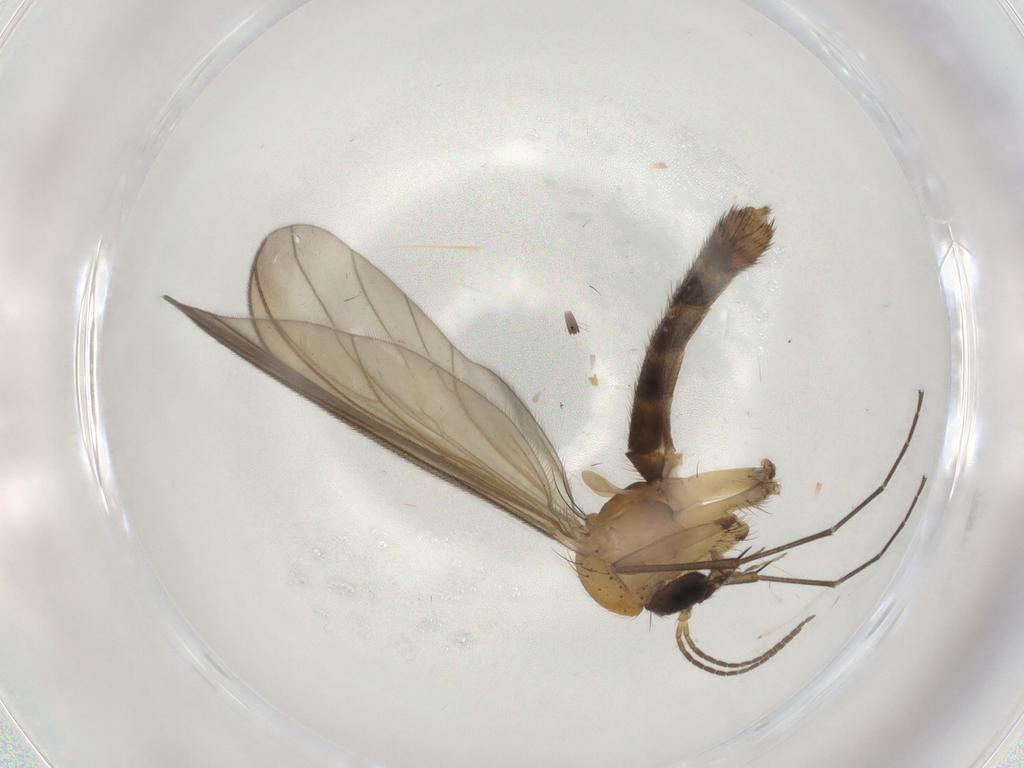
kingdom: Animalia
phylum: Arthropoda
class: Insecta
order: Diptera
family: Mycetophilidae
